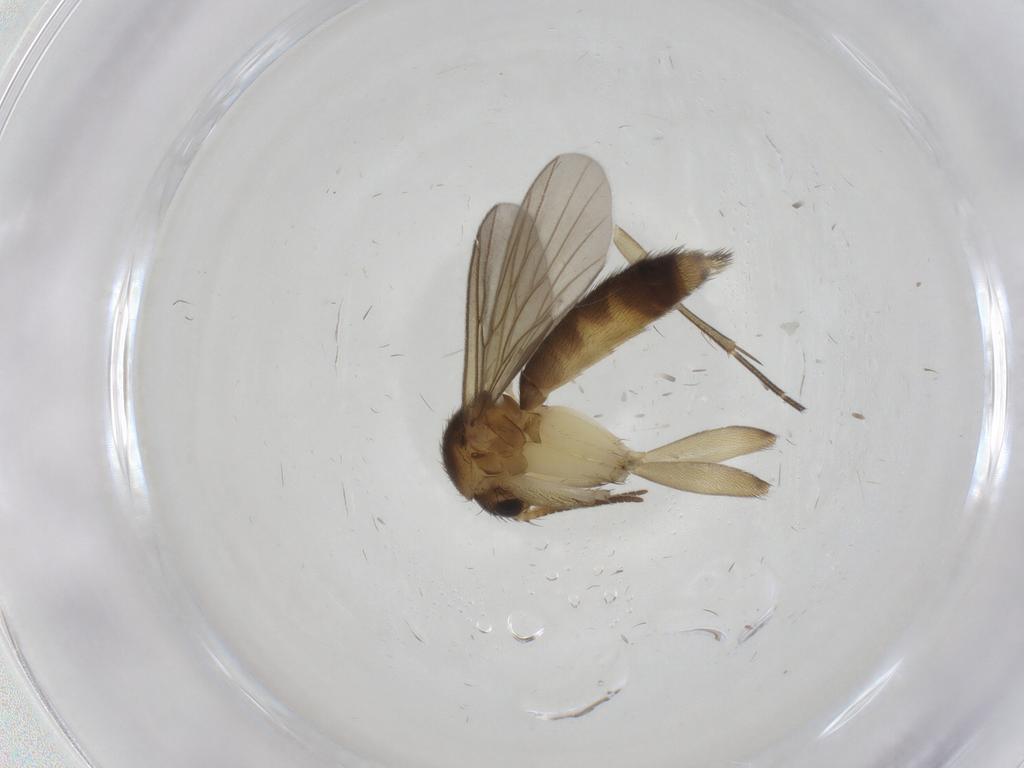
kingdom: Animalia
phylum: Arthropoda
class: Insecta
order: Diptera
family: Mycetophilidae
